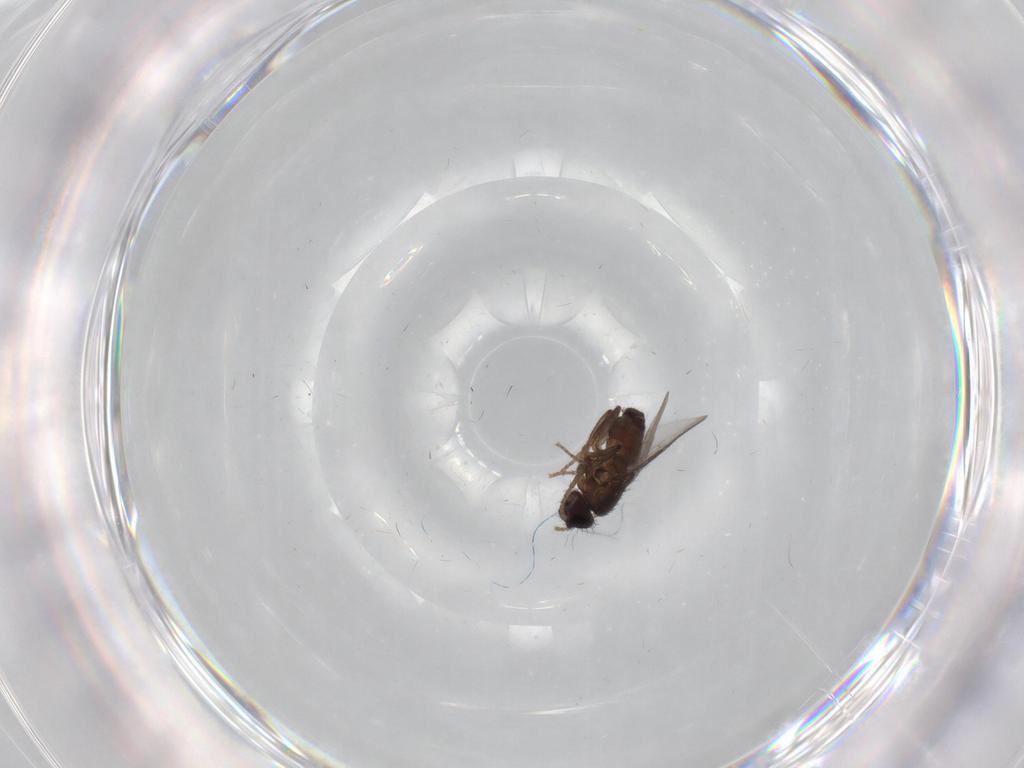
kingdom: Animalia
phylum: Arthropoda
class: Insecta
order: Diptera
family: Sphaeroceridae
